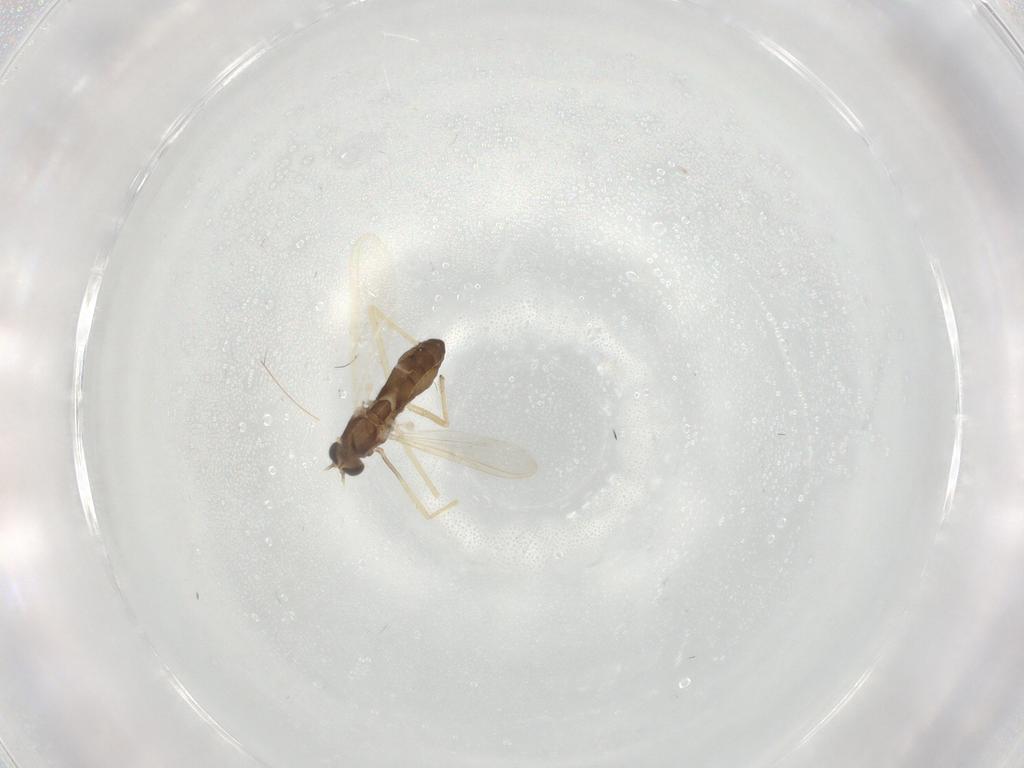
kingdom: Animalia
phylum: Arthropoda
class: Insecta
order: Diptera
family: Chironomidae
